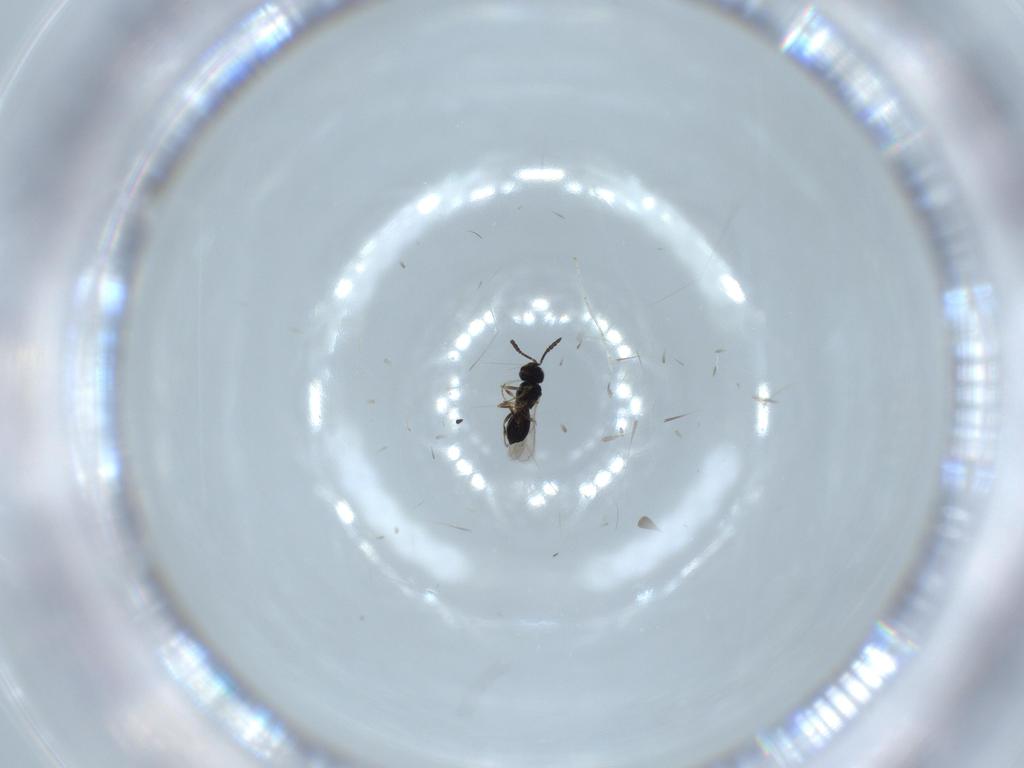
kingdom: Animalia
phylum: Arthropoda
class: Insecta
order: Hymenoptera
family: Scelionidae
